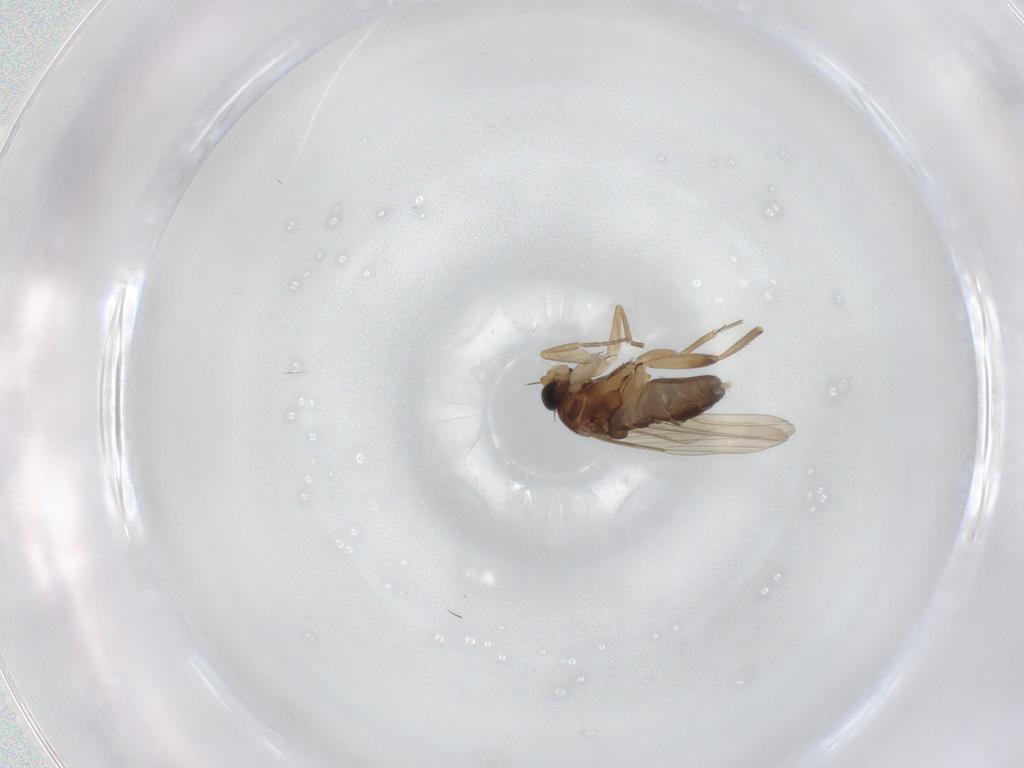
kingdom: Animalia
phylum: Arthropoda
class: Insecta
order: Diptera
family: Phoridae
